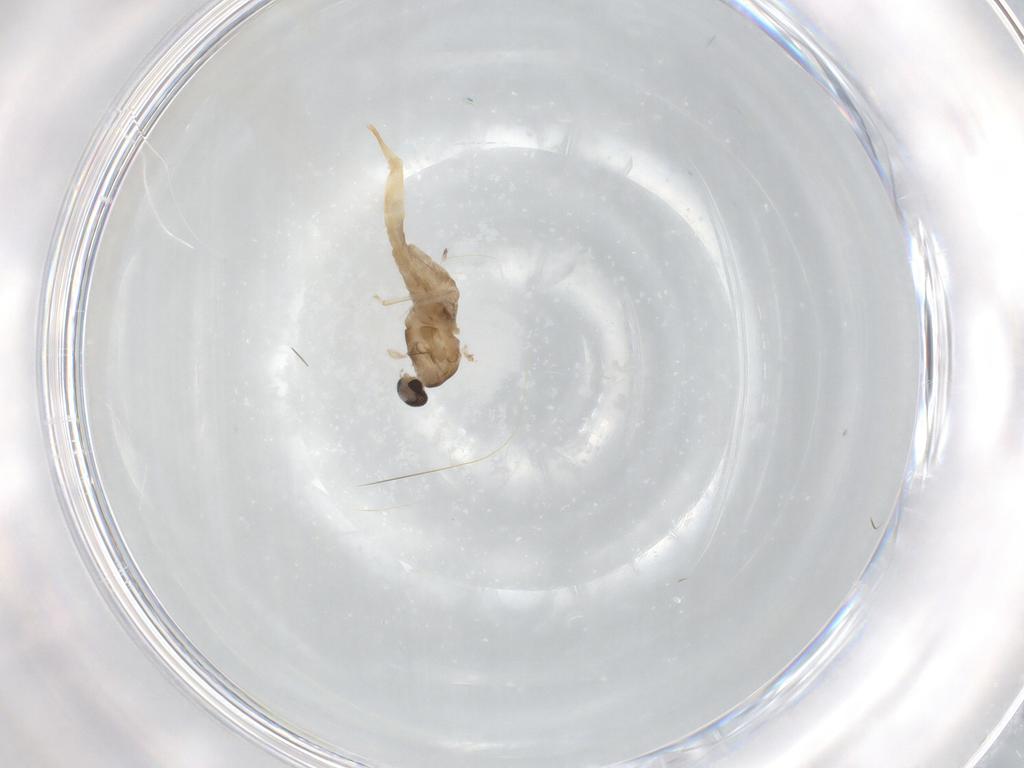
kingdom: Animalia
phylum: Arthropoda
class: Insecta
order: Diptera
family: Cecidomyiidae
